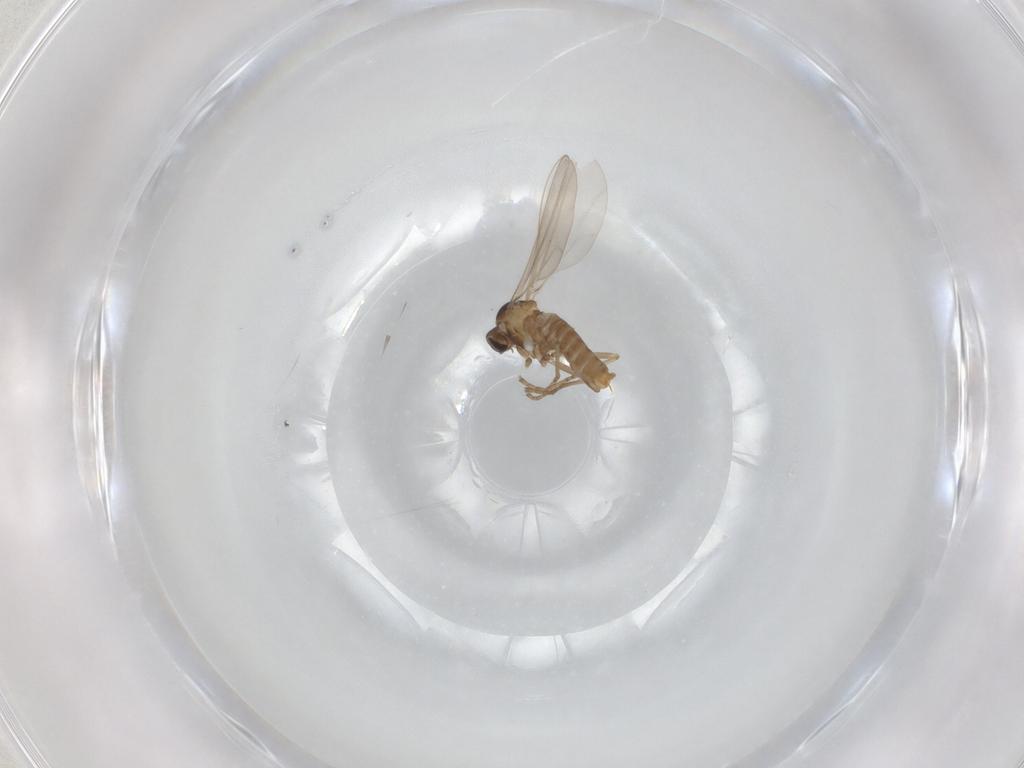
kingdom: Animalia
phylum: Arthropoda
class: Insecta
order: Diptera
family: Cecidomyiidae
